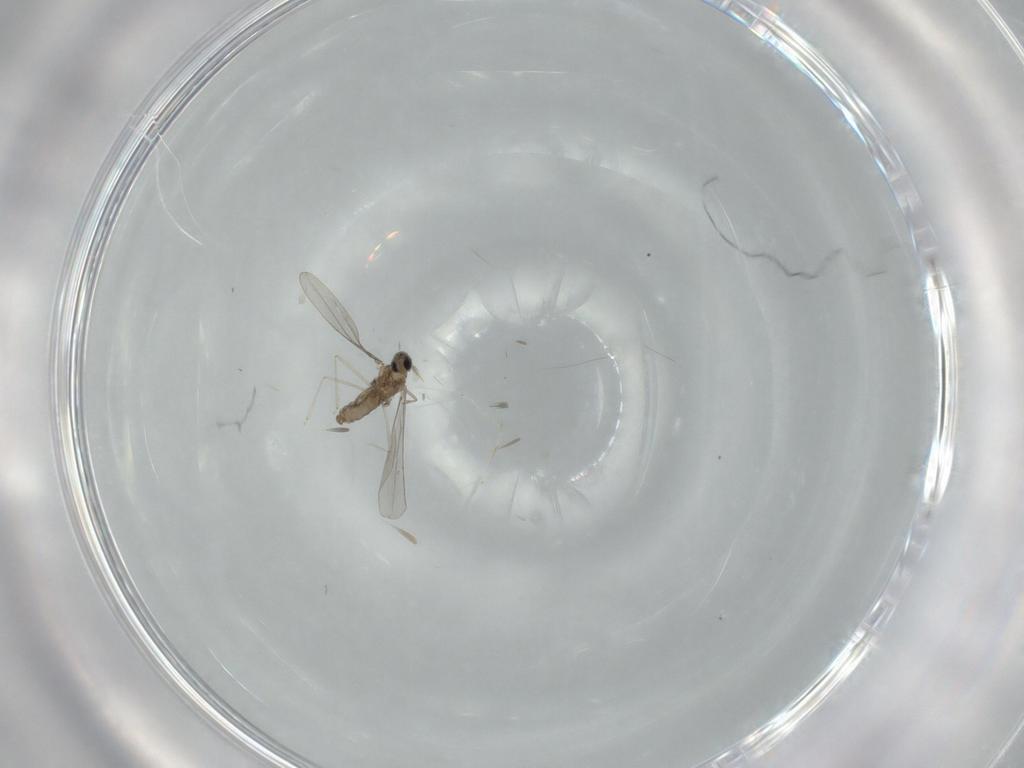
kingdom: Animalia
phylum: Arthropoda
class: Insecta
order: Diptera
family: Cecidomyiidae
